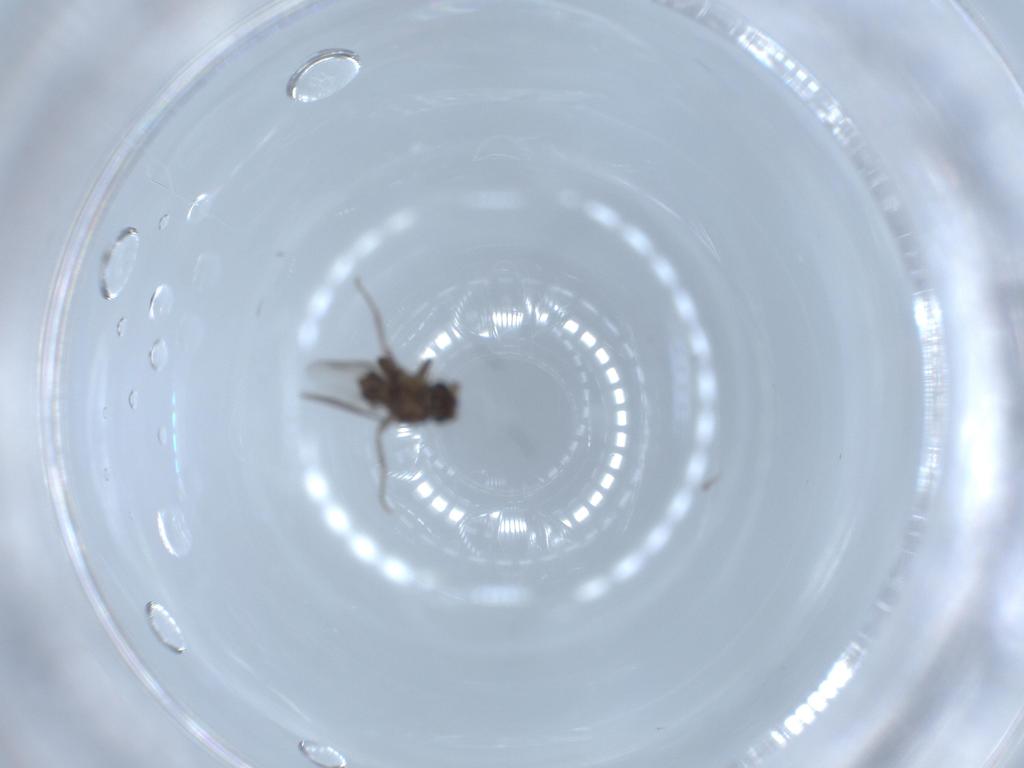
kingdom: Animalia
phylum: Arthropoda
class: Insecta
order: Diptera
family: Sphaeroceridae
